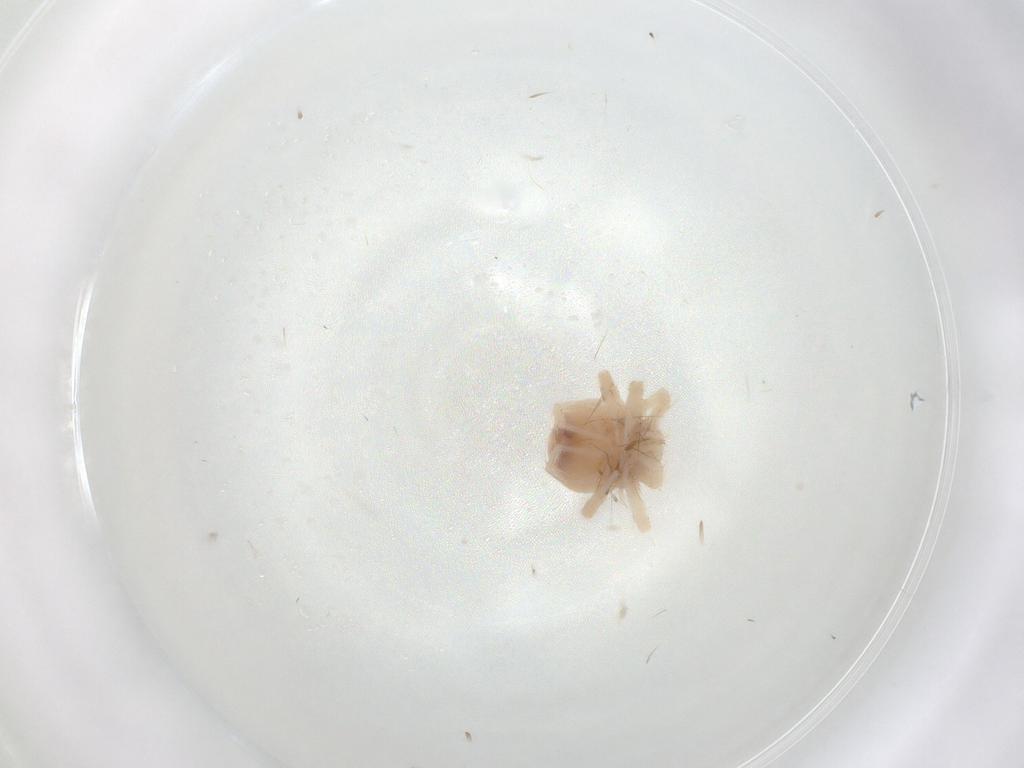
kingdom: Animalia
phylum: Arthropoda
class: Arachnida
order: Trombidiformes
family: Anystidae
